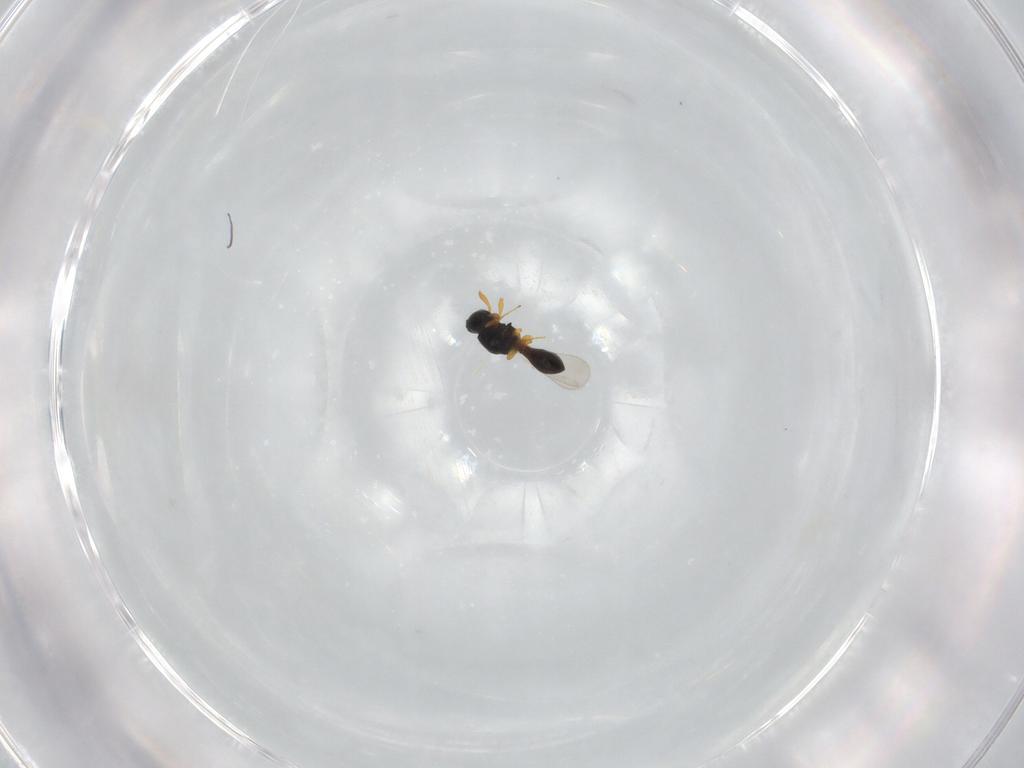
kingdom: Animalia
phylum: Arthropoda
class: Insecta
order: Hymenoptera
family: Platygastridae
